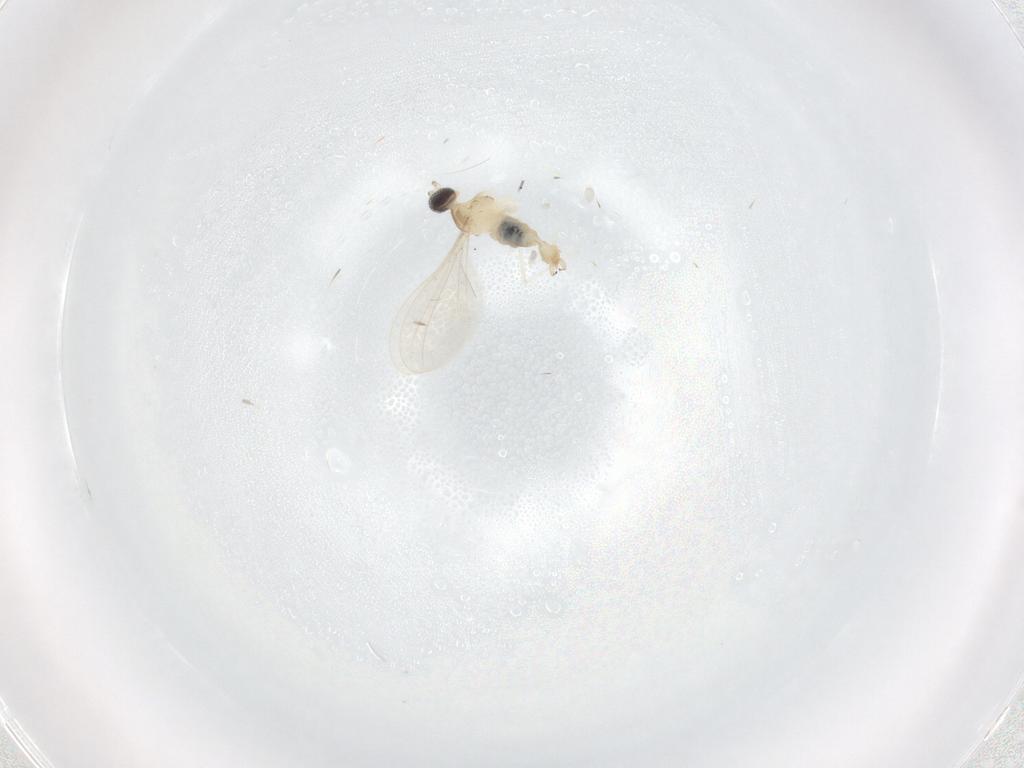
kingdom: Animalia
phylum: Arthropoda
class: Insecta
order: Diptera
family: Cecidomyiidae
